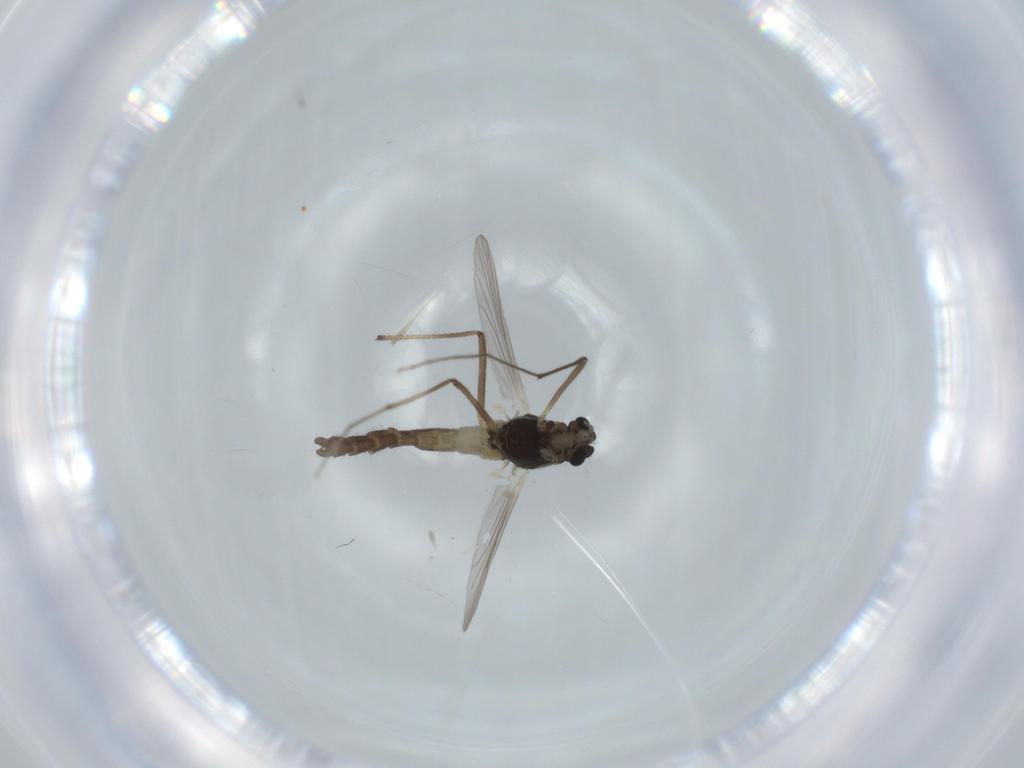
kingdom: Animalia
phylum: Arthropoda
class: Insecta
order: Diptera
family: Chironomidae
